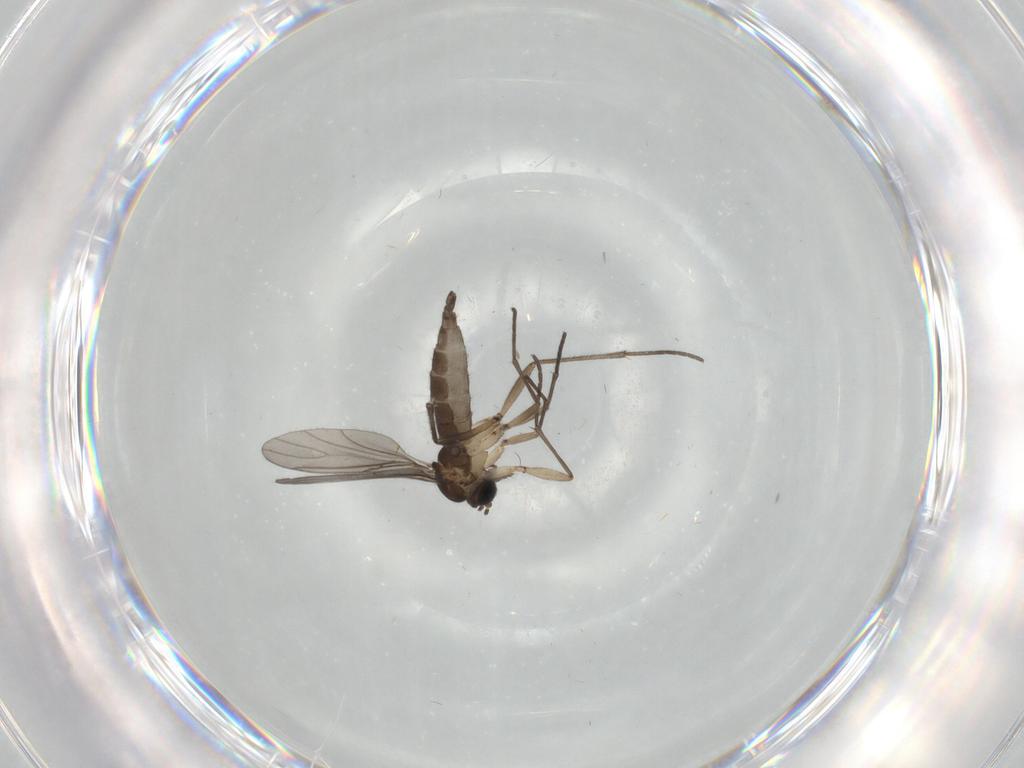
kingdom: Animalia
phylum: Arthropoda
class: Insecta
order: Diptera
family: Sciaridae
